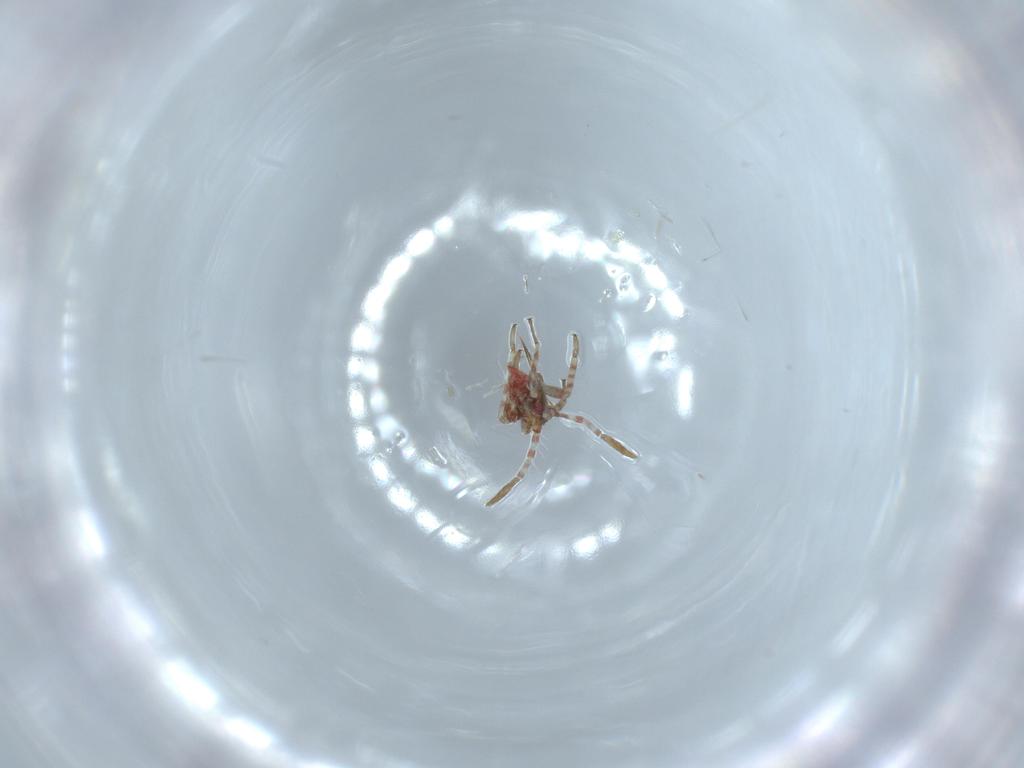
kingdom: Animalia
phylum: Arthropoda
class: Insecta
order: Hemiptera
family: Miridae
